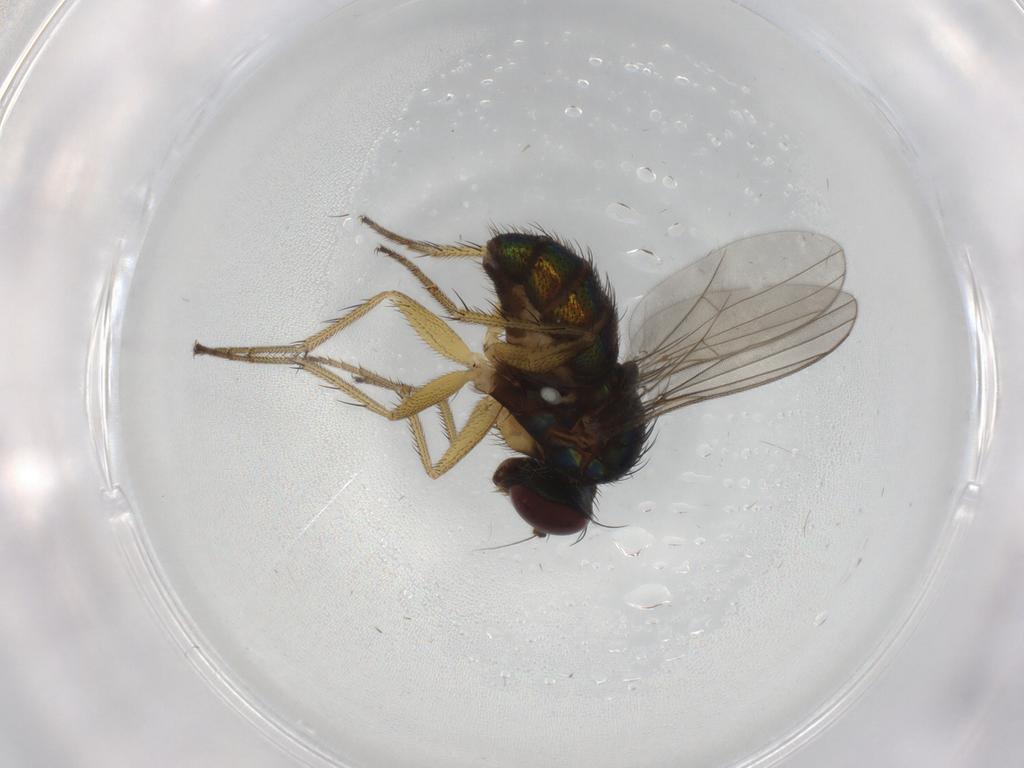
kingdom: Animalia
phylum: Arthropoda
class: Insecta
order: Diptera
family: Dolichopodidae
